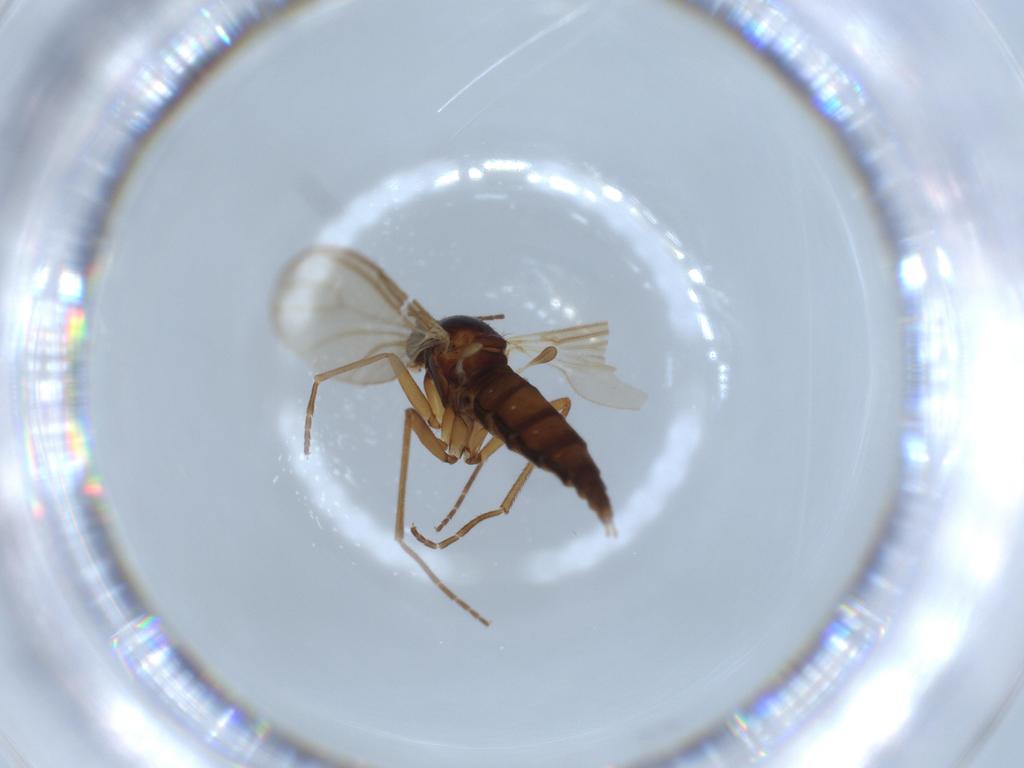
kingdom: Animalia
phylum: Arthropoda
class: Insecta
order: Diptera
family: Sciaridae
